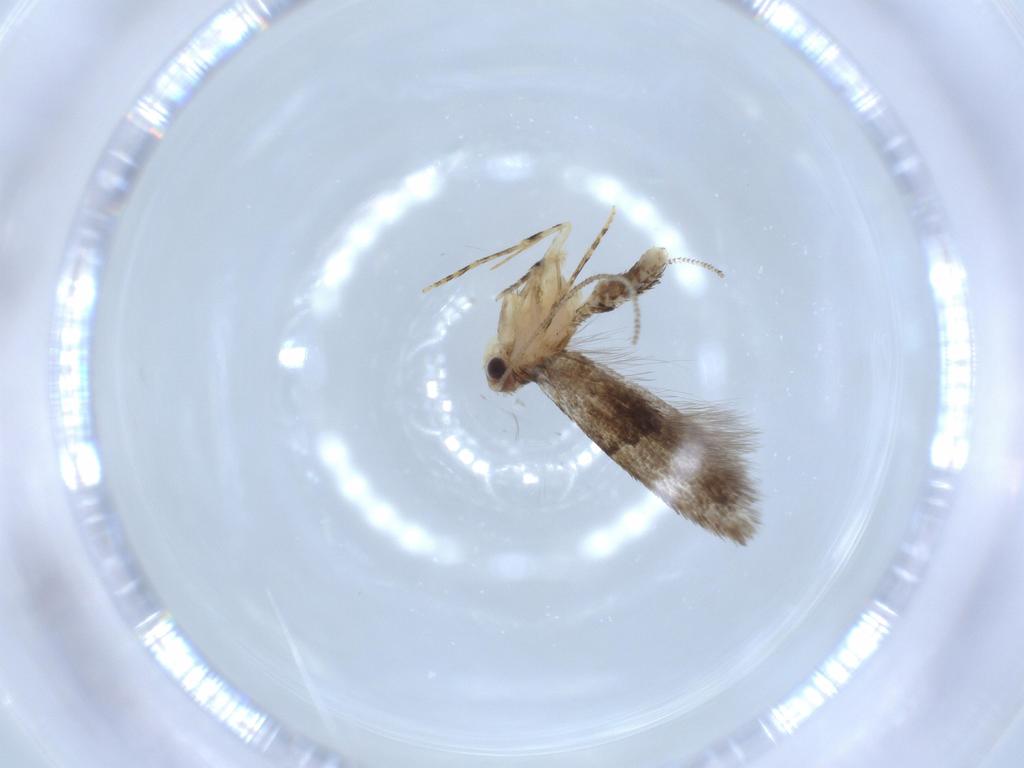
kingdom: Animalia
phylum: Arthropoda
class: Insecta
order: Lepidoptera
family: Tineidae
